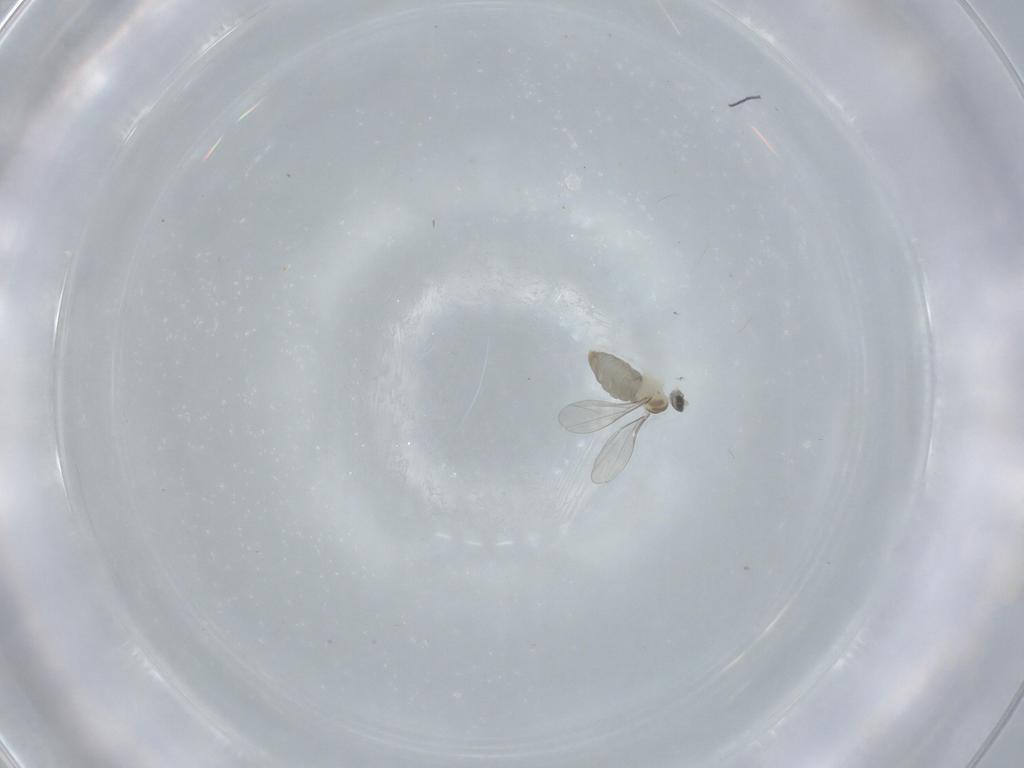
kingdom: Animalia
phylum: Arthropoda
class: Insecta
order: Diptera
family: Chironomidae
